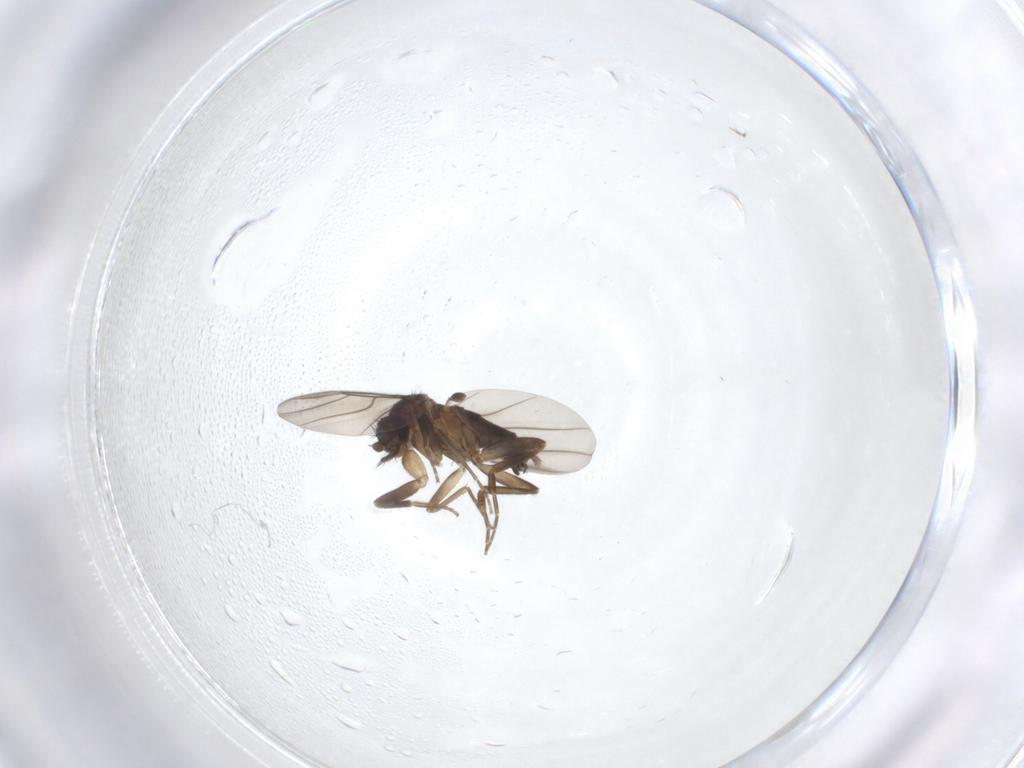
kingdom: Animalia
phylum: Arthropoda
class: Insecta
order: Diptera
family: Phoridae
